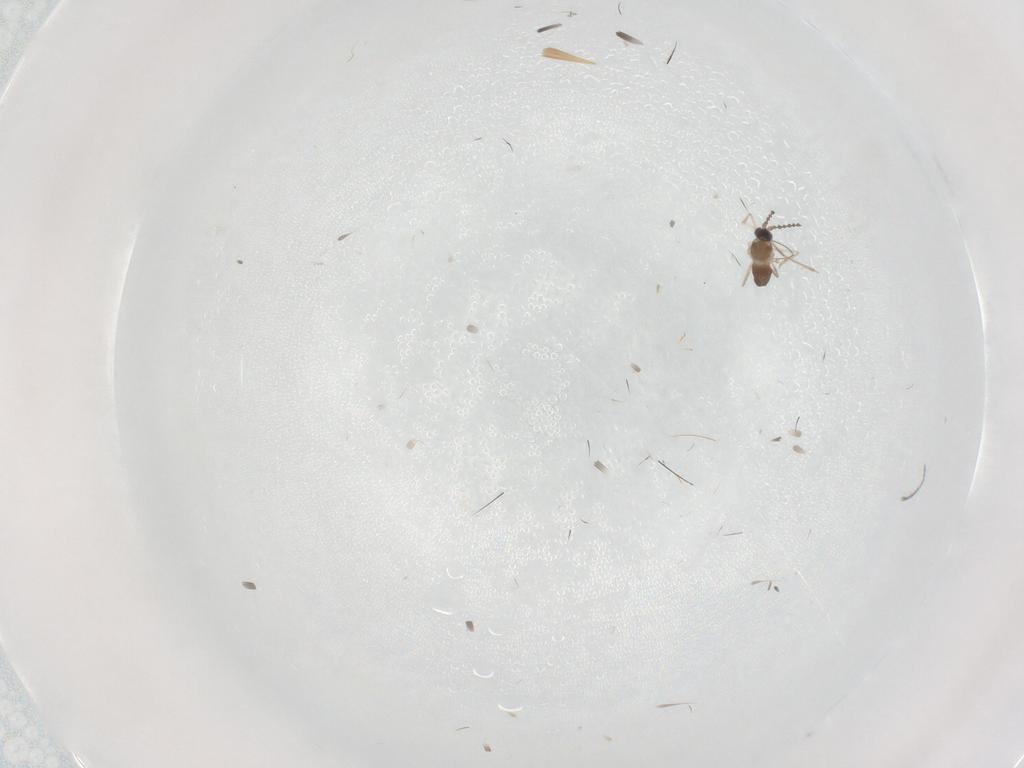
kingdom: Animalia
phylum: Arthropoda
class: Insecta
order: Diptera
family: Cecidomyiidae
